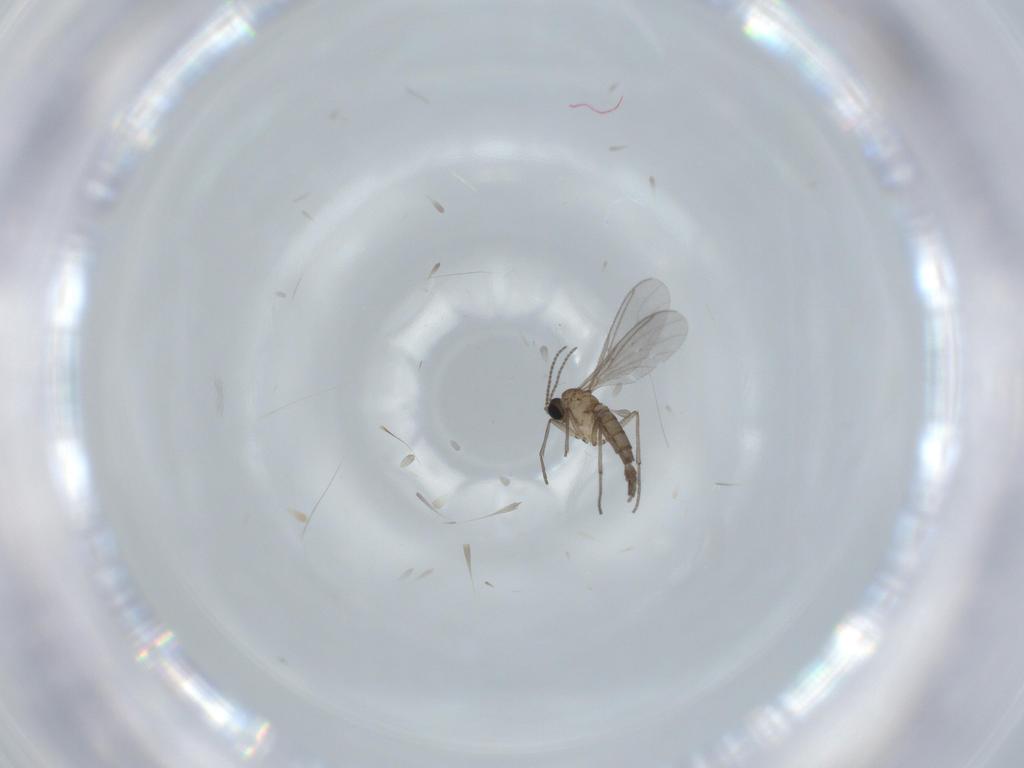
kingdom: Animalia
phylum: Arthropoda
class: Insecta
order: Diptera
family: Sciaridae
